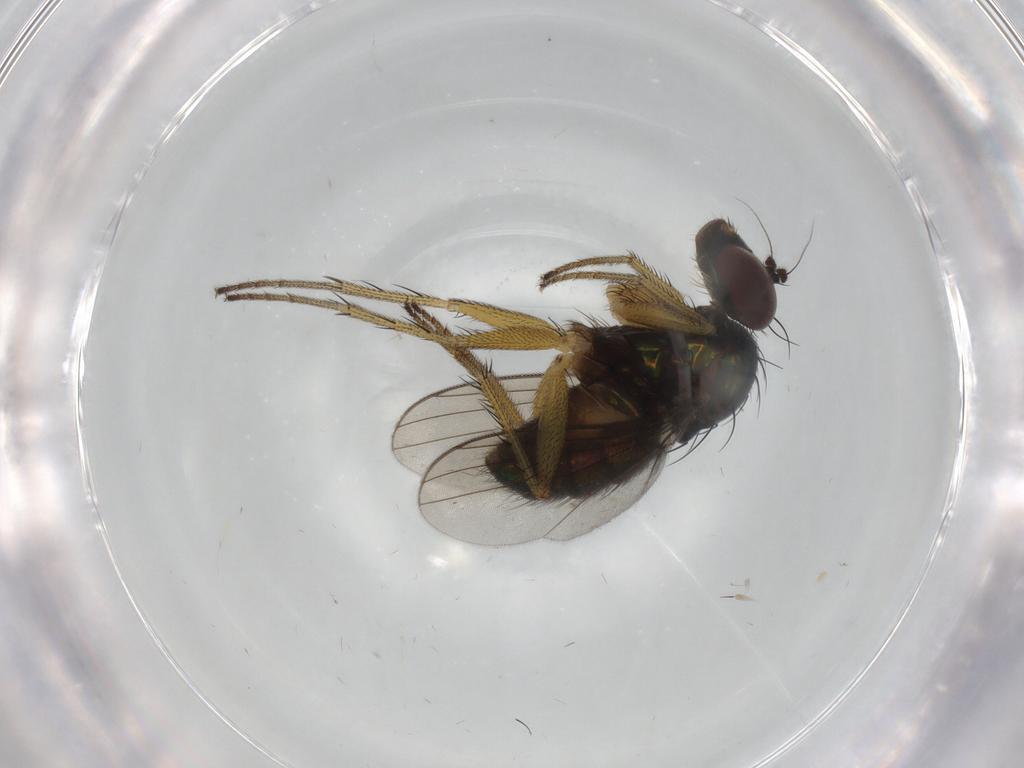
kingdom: Animalia
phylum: Arthropoda
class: Insecta
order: Diptera
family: Dolichopodidae
